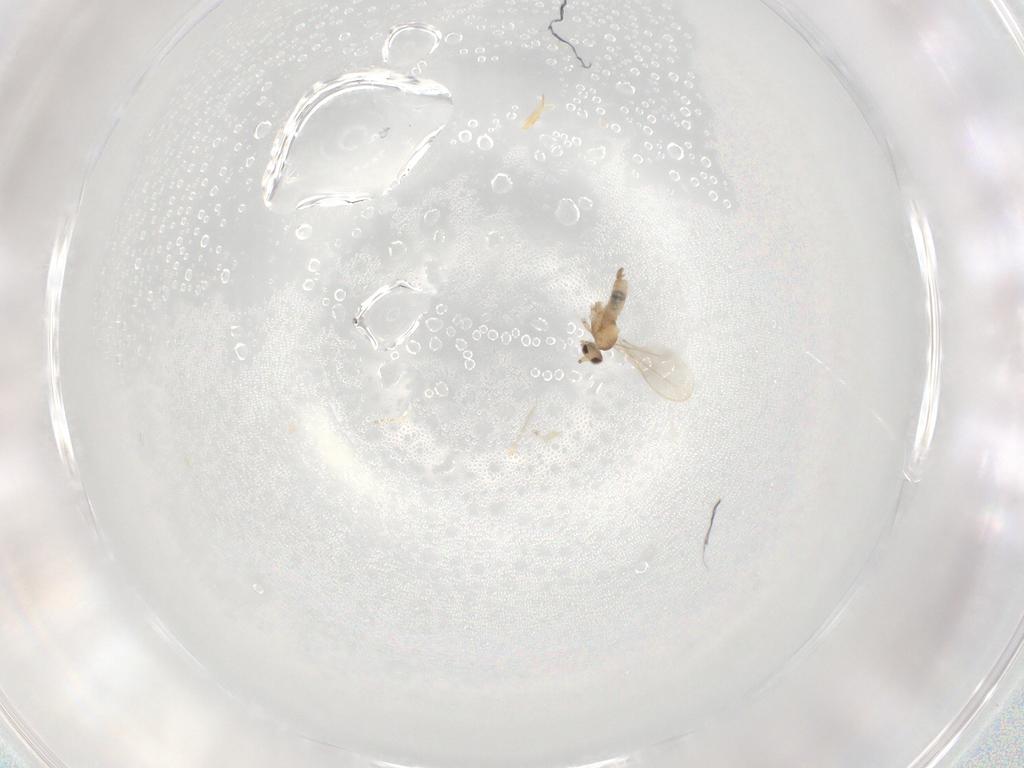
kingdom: Animalia
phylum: Arthropoda
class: Insecta
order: Diptera
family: Cecidomyiidae
